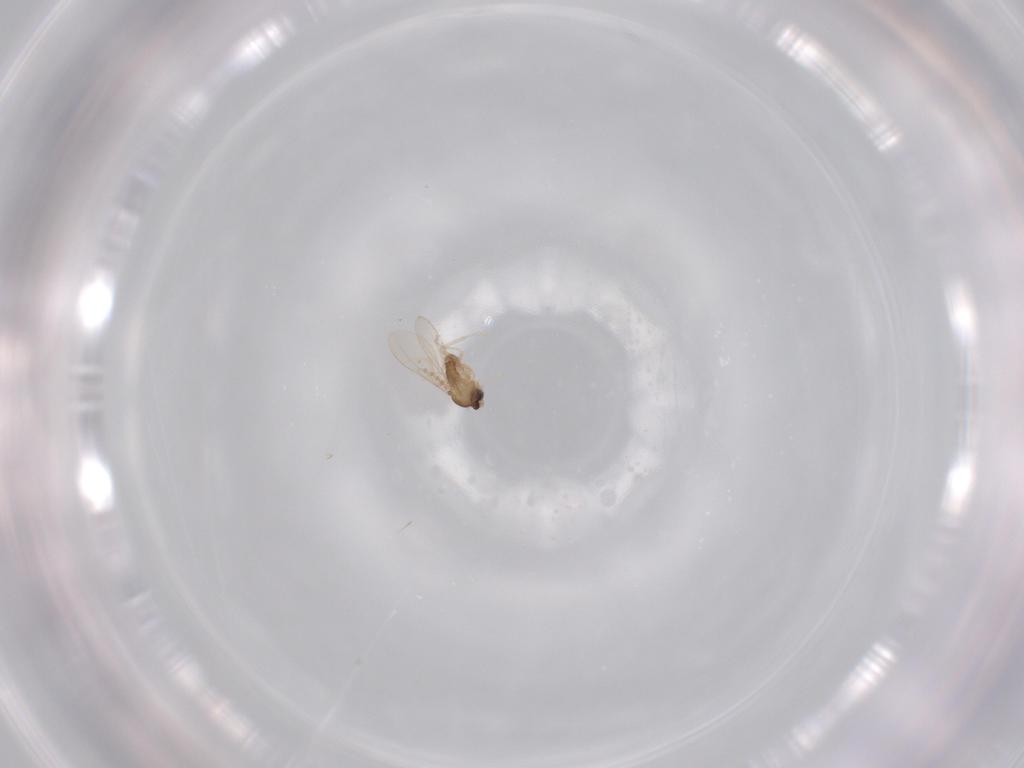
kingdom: Animalia
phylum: Arthropoda
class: Insecta
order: Diptera
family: Cecidomyiidae
